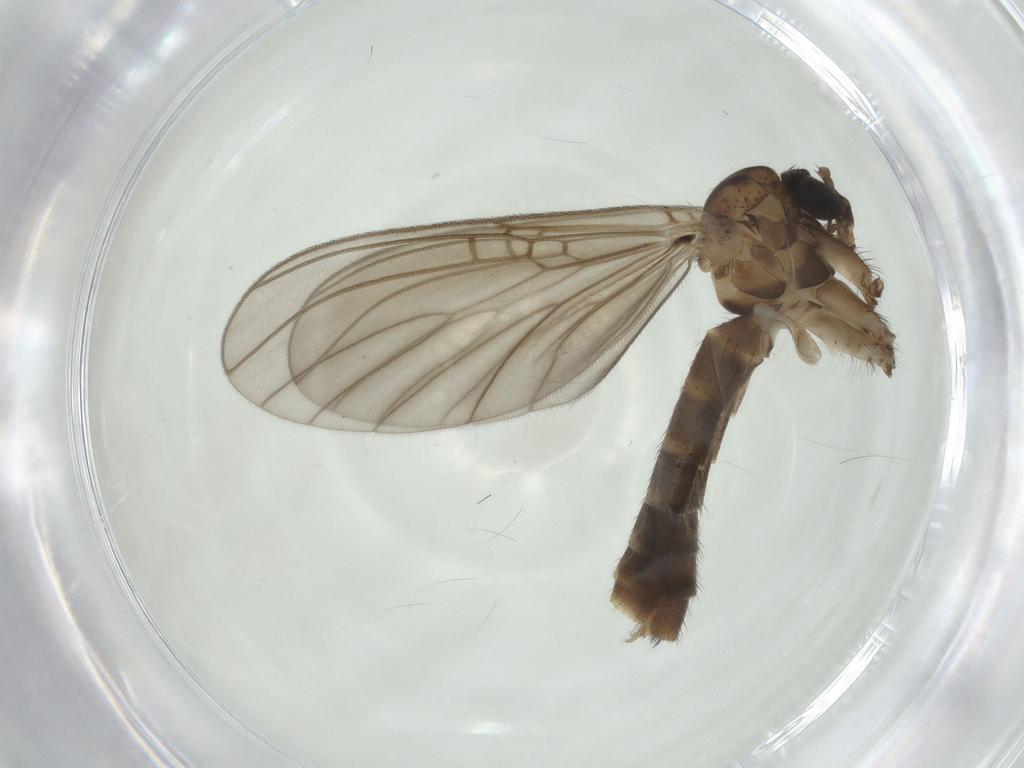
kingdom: Animalia
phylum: Arthropoda
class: Insecta
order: Diptera
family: Mycetophilidae
